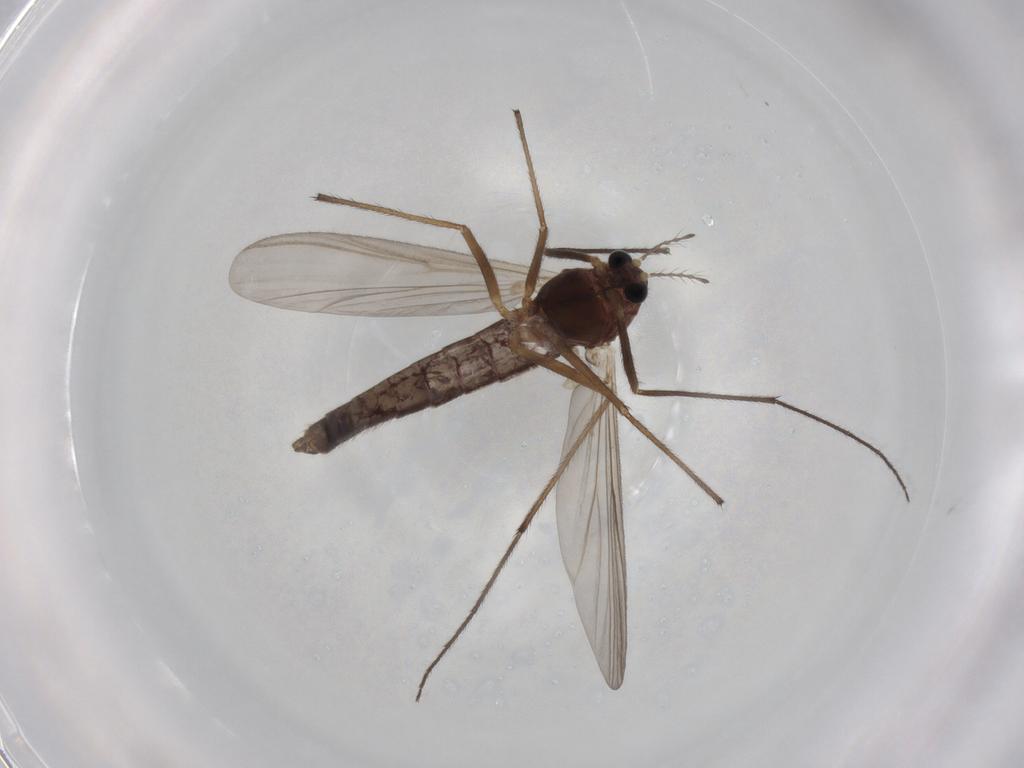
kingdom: Animalia
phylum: Arthropoda
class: Insecta
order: Diptera
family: Chironomidae
